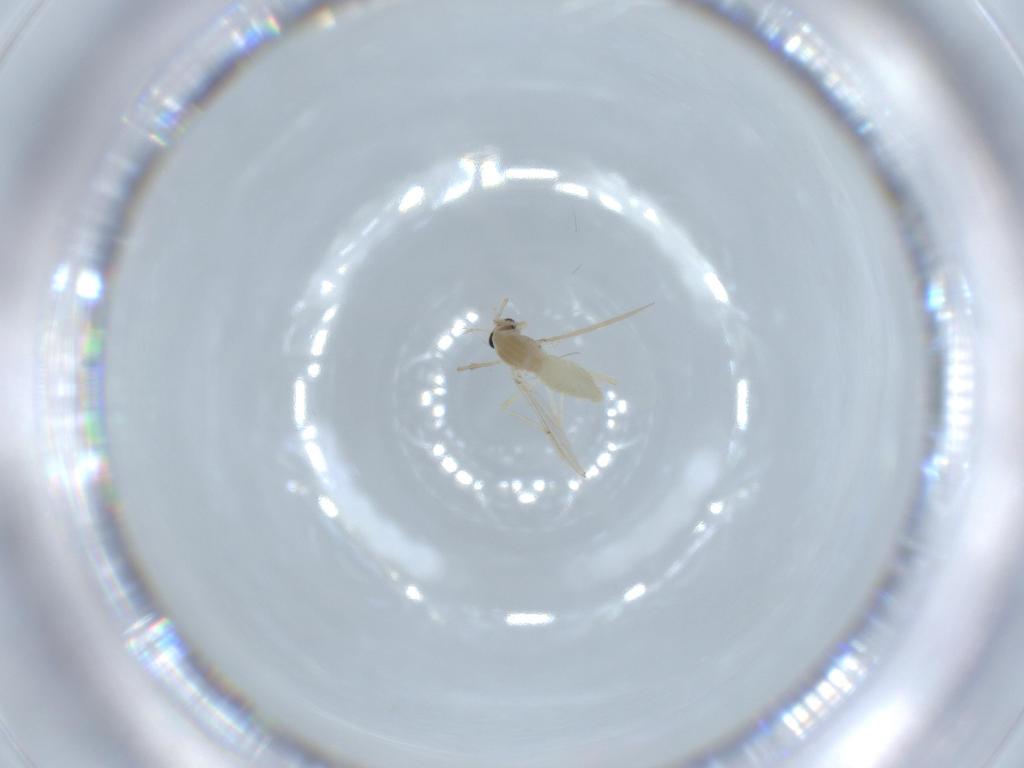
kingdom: Animalia
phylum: Arthropoda
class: Insecta
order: Diptera
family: Chironomidae
